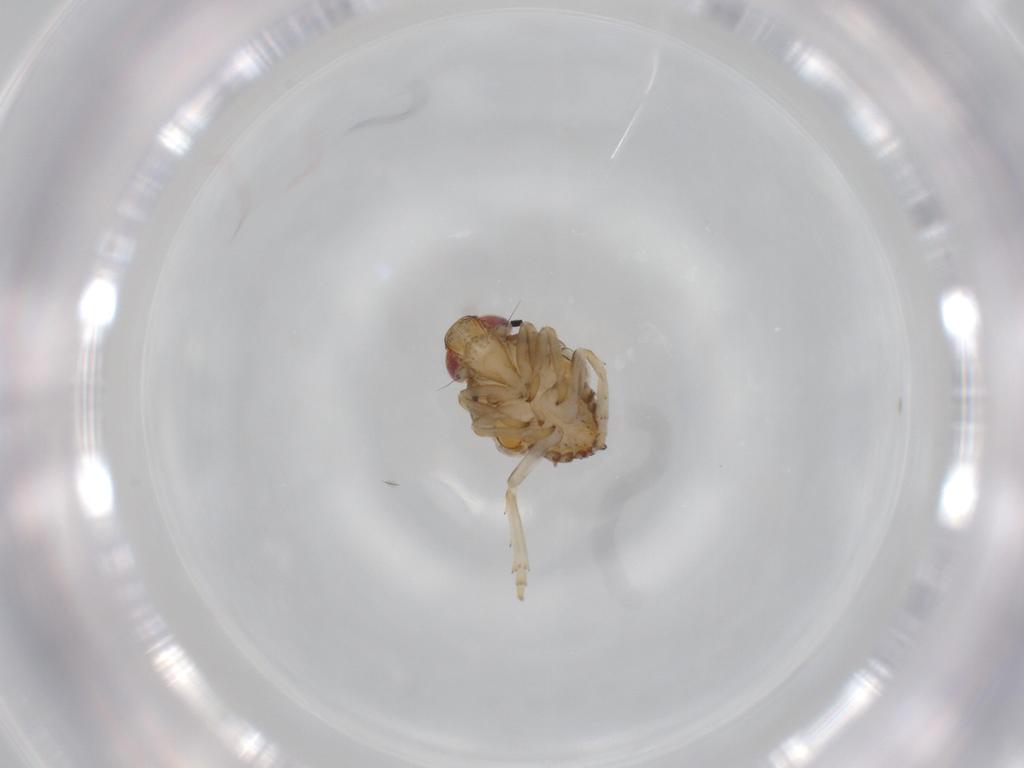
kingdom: Animalia
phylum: Arthropoda
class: Insecta
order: Hemiptera
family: Issidae
